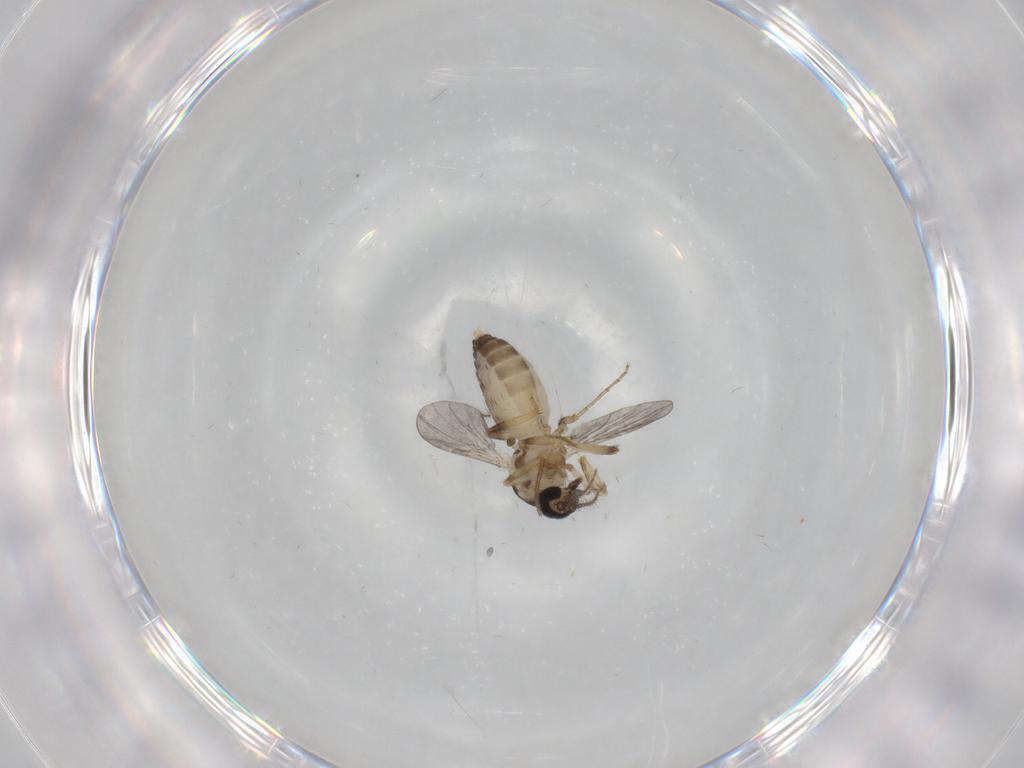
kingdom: Animalia
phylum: Arthropoda
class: Insecta
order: Diptera
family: Ceratopogonidae
